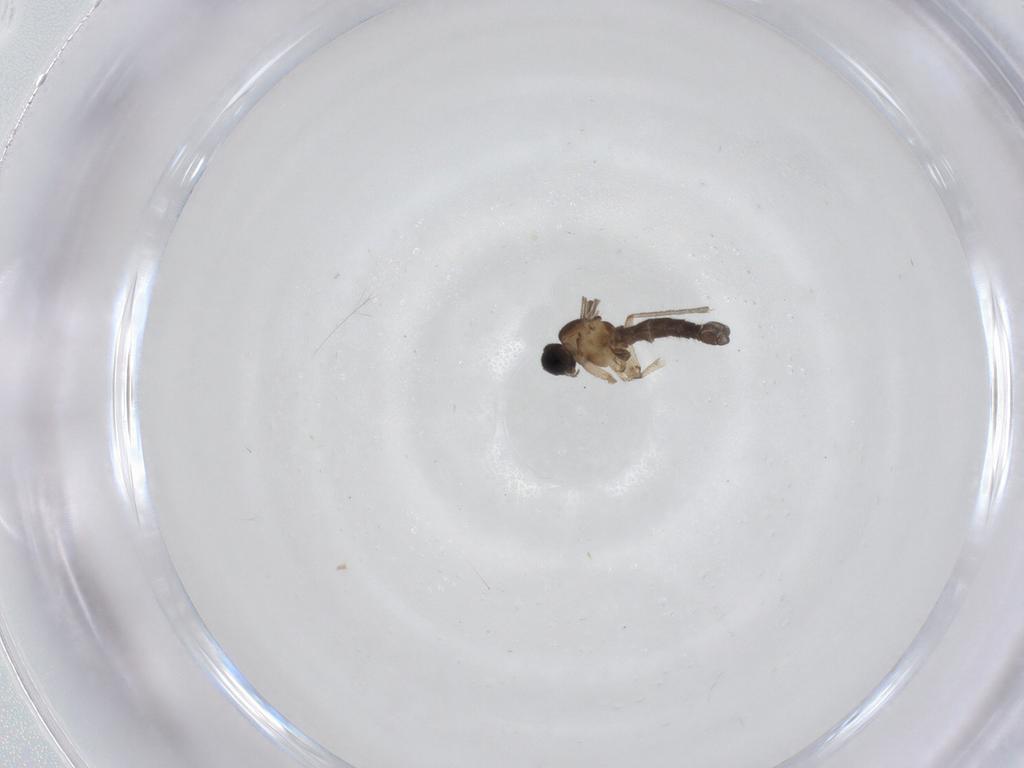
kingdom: Animalia
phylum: Arthropoda
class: Insecta
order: Diptera
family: Sciaridae
